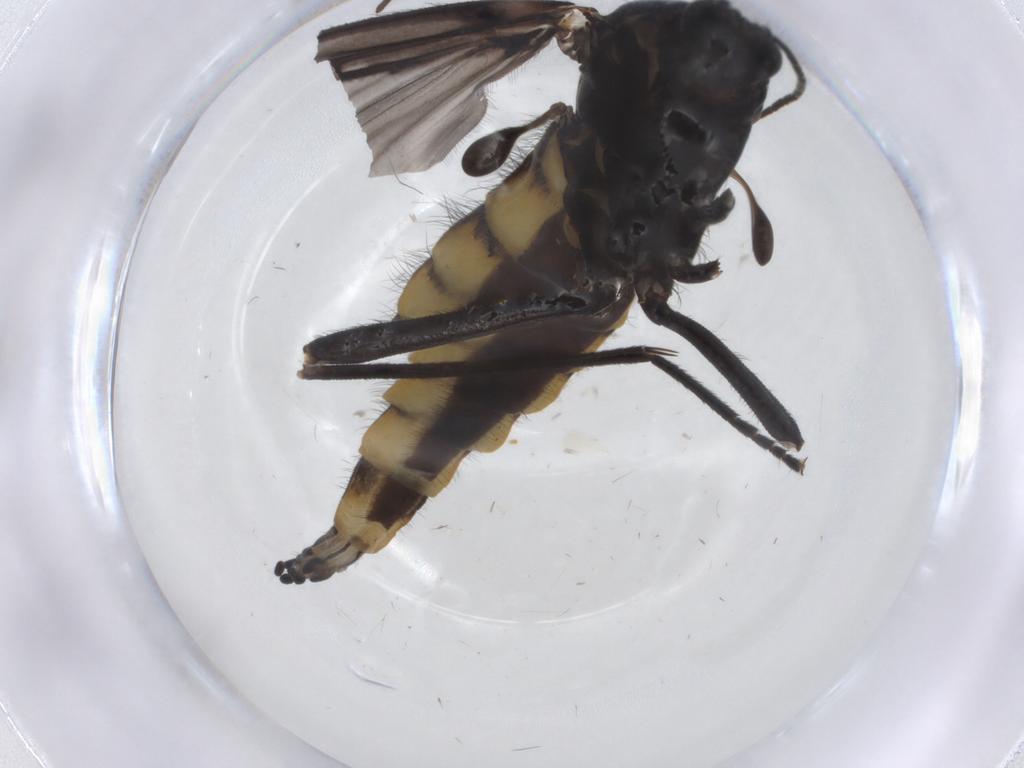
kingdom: Animalia
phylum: Arthropoda
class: Insecta
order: Diptera
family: Sciaridae
